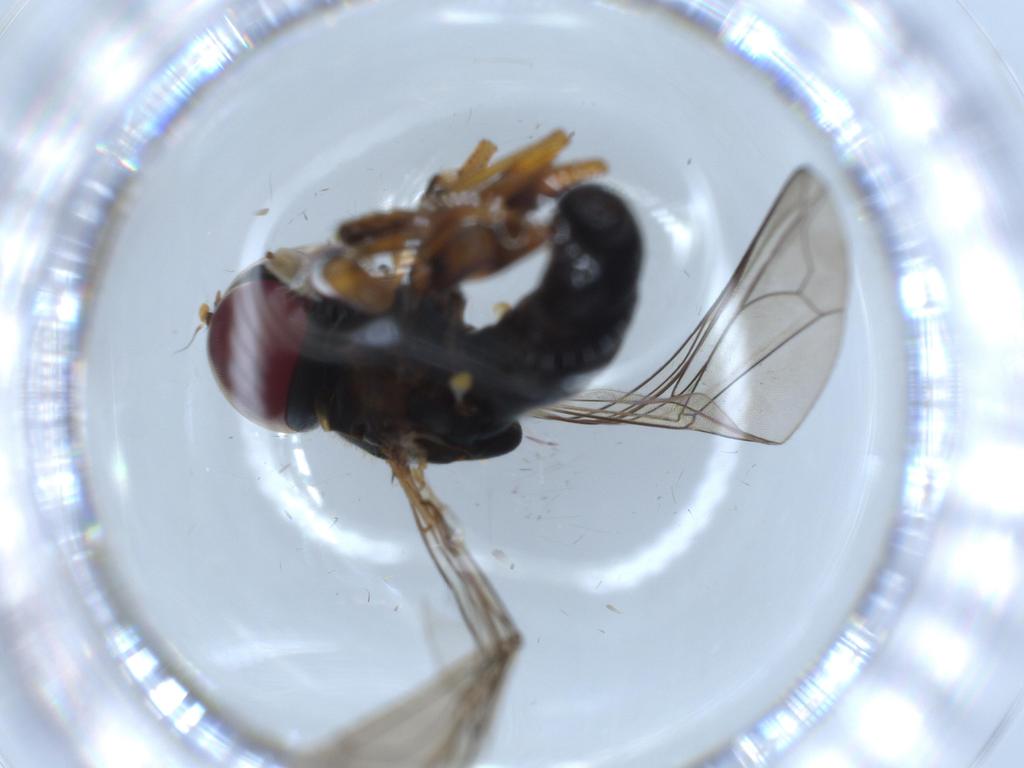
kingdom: Animalia
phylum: Arthropoda
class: Insecta
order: Diptera
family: Pipunculidae
